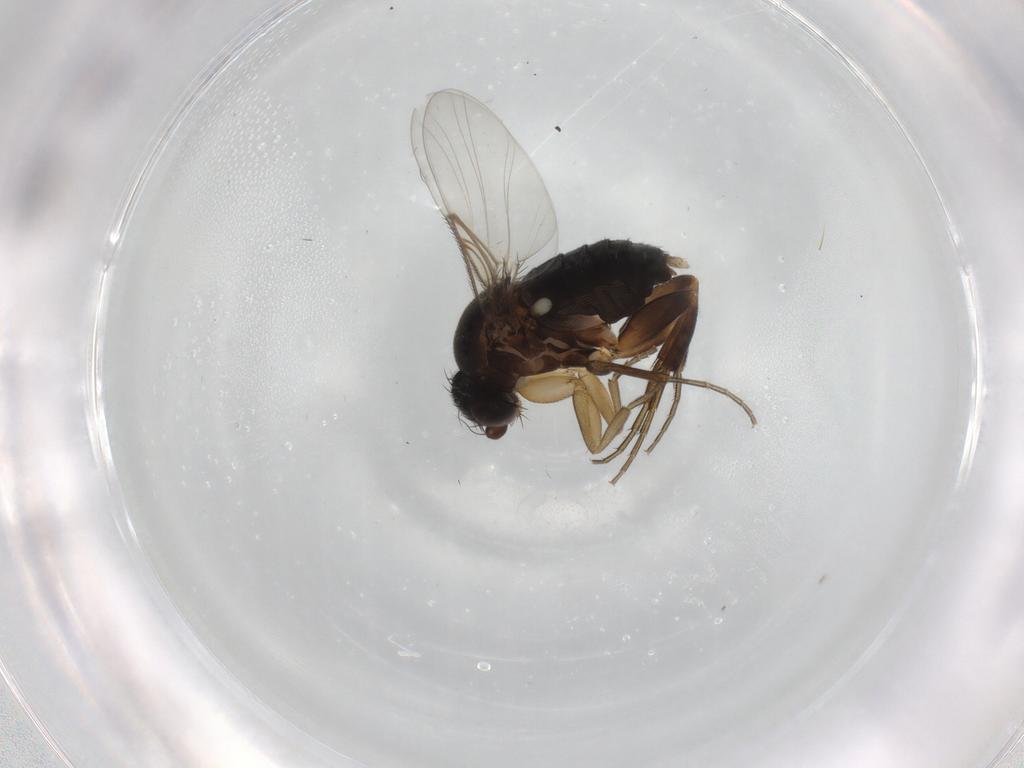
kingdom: Animalia
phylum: Arthropoda
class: Insecta
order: Diptera
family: Phoridae
